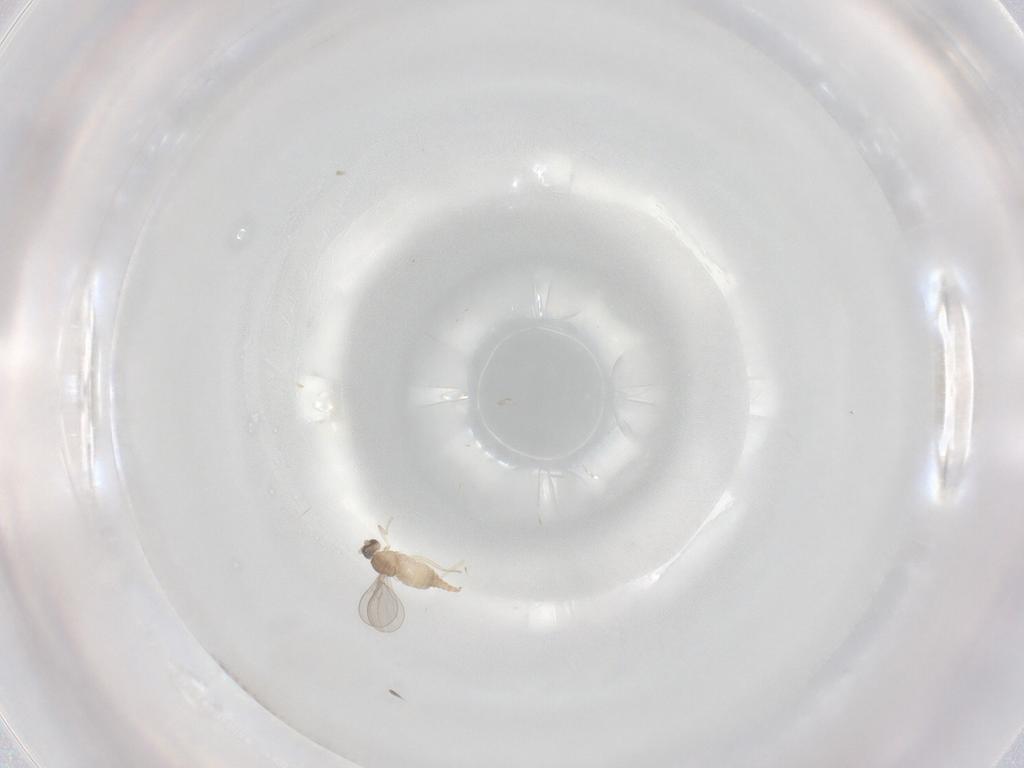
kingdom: Animalia
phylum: Arthropoda
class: Insecta
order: Diptera
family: Cecidomyiidae
